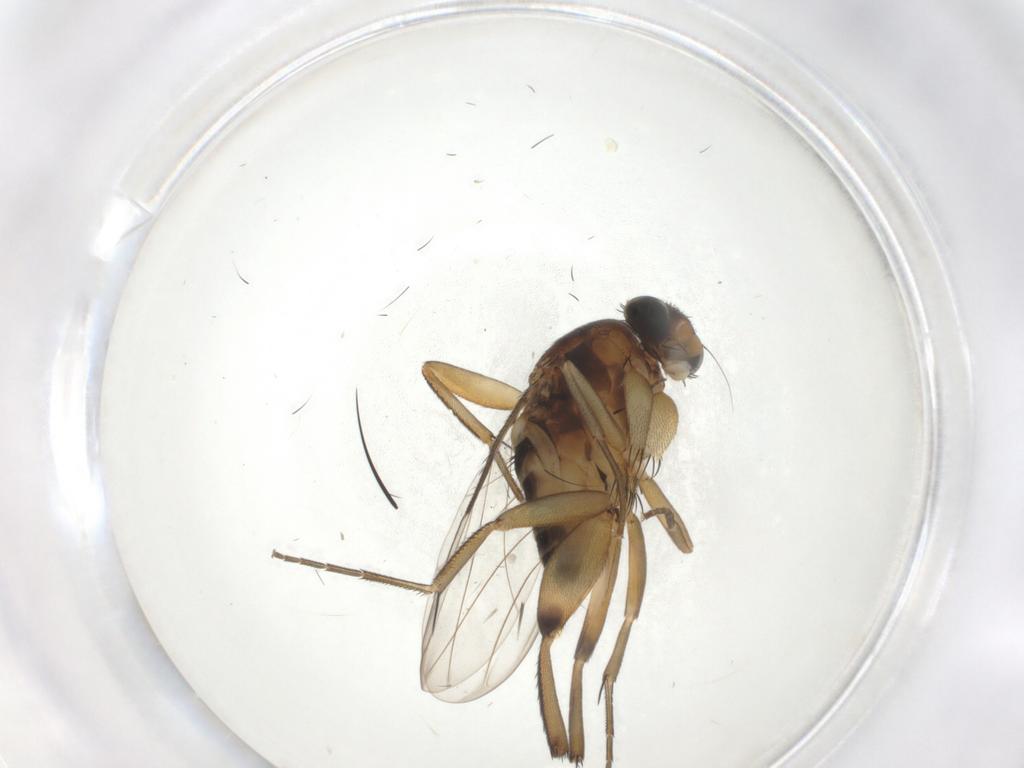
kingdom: Animalia
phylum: Arthropoda
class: Insecta
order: Diptera
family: Phoridae
